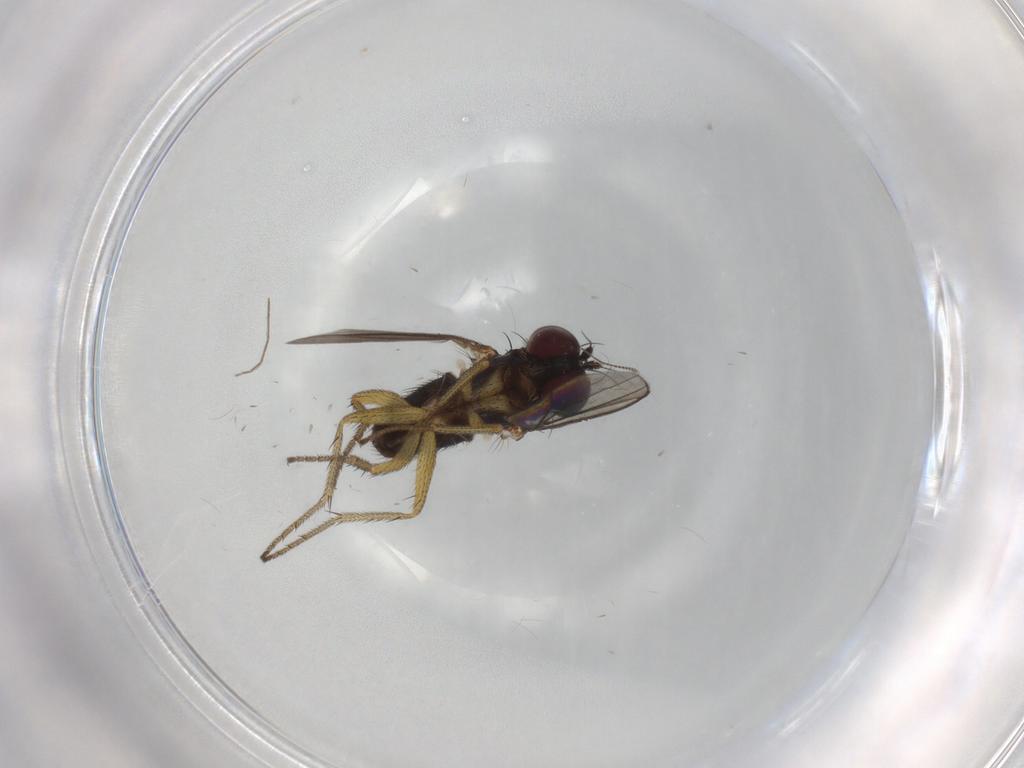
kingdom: Animalia
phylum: Arthropoda
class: Insecta
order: Diptera
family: Dolichopodidae
